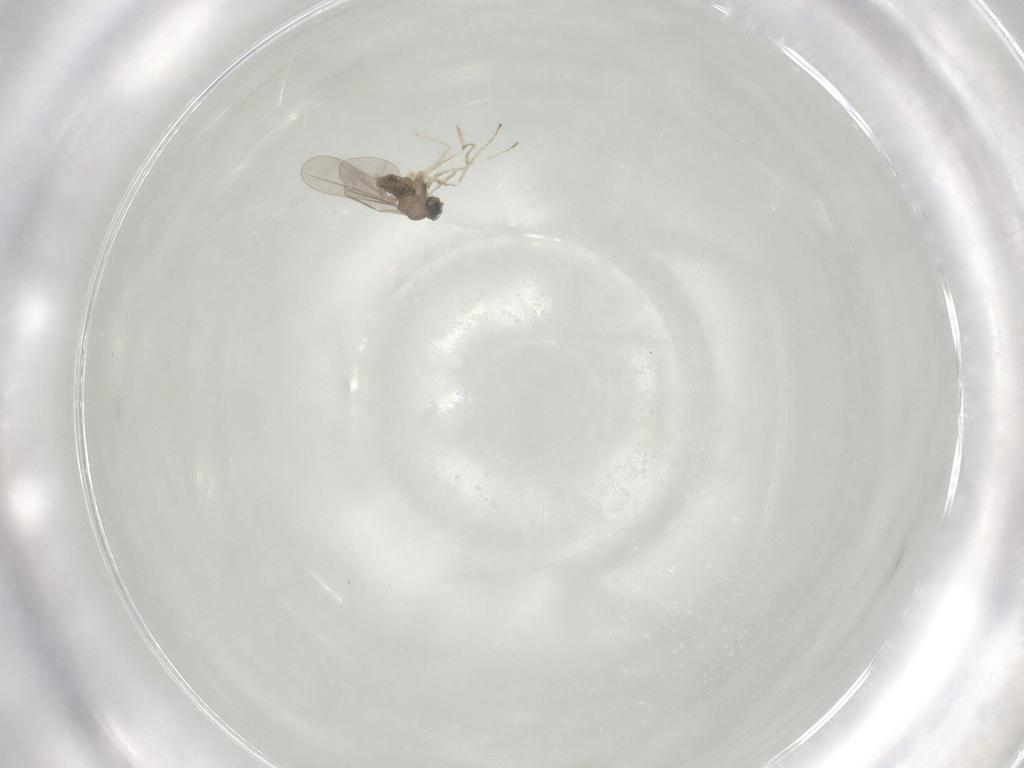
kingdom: Animalia
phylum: Arthropoda
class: Insecta
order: Diptera
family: Cecidomyiidae
